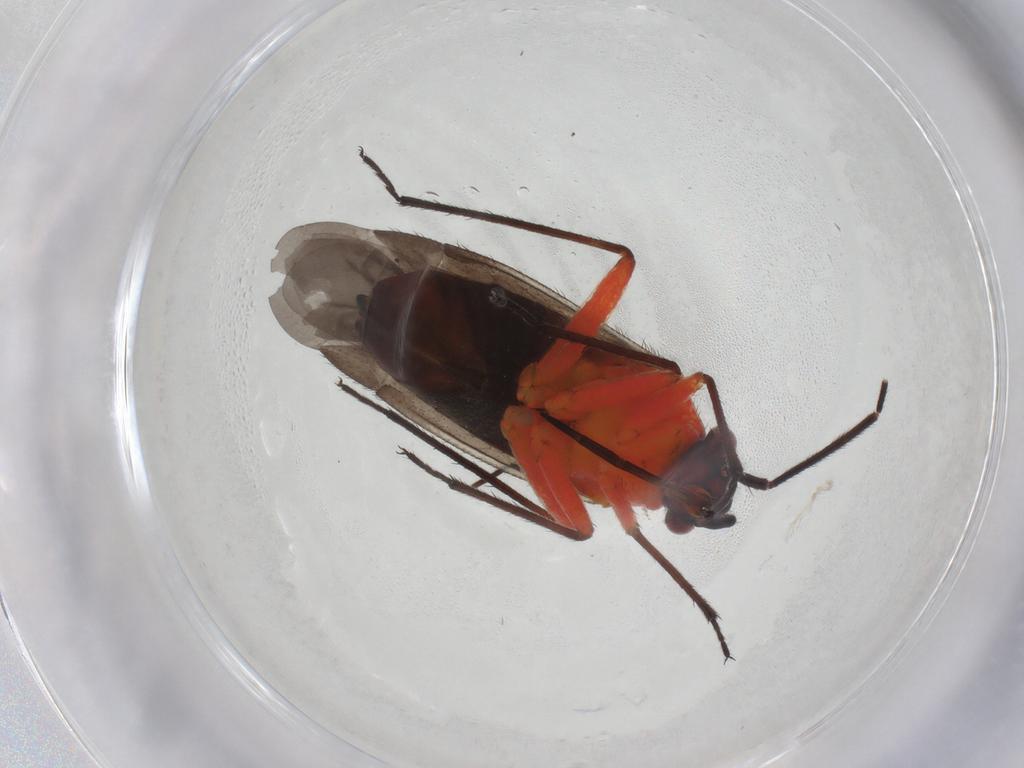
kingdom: Animalia
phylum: Arthropoda
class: Insecta
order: Hemiptera
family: Miridae
